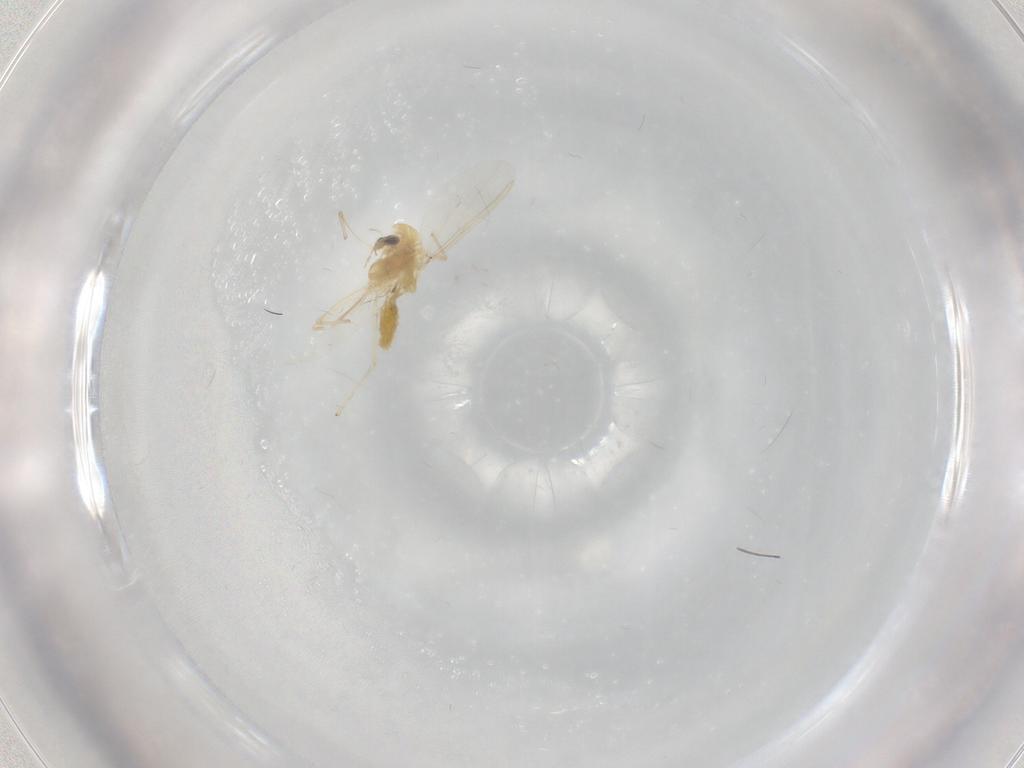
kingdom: Animalia
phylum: Arthropoda
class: Insecta
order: Diptera
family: Chironomidae
